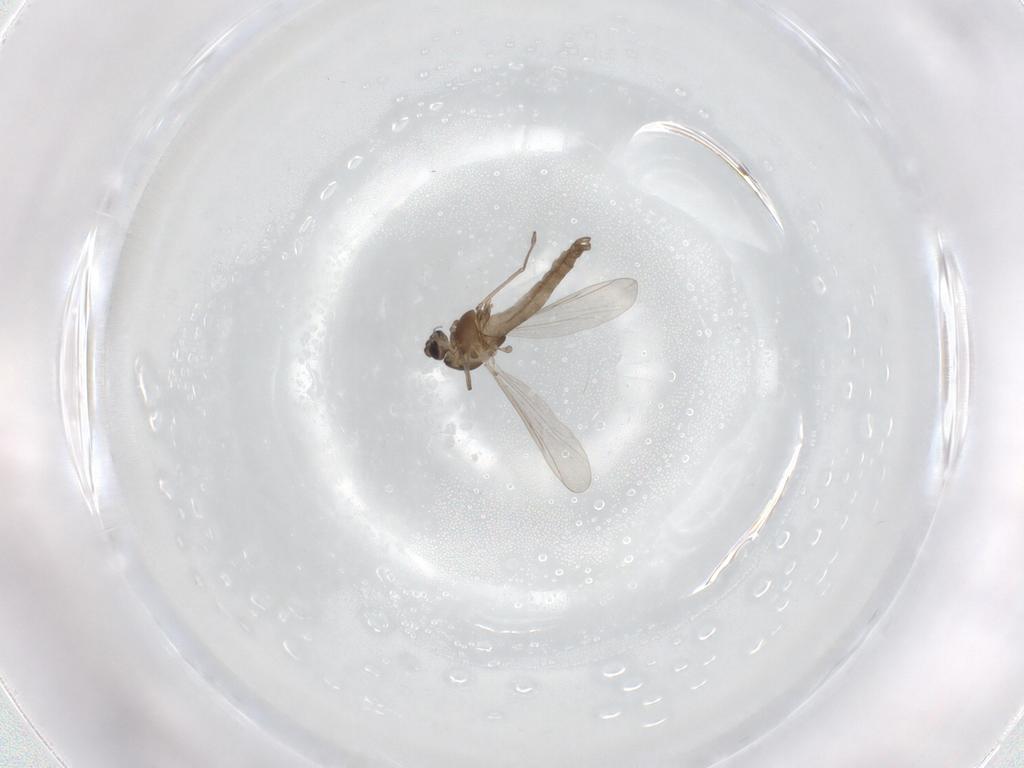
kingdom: Animalia
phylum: Arthropoda
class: Insecta
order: Diptera
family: Chironomidae
